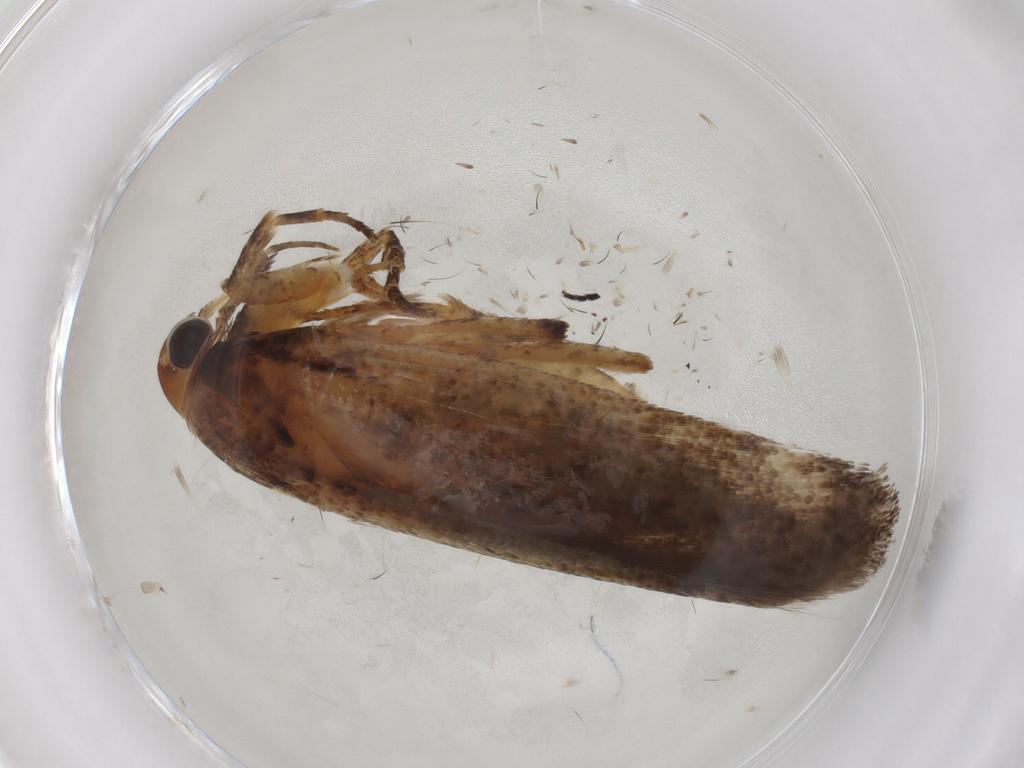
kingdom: Animalia
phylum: Arthropoda
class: Insecta
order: Lepidoptera
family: Gelechiidae
